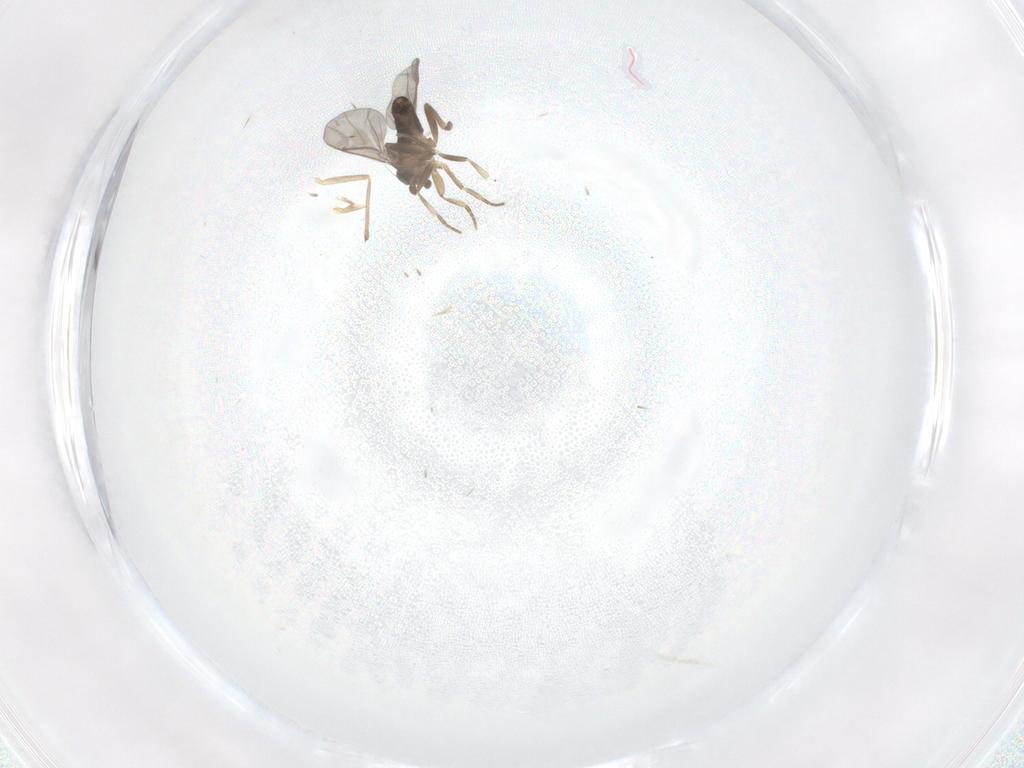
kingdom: Animalia
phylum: Arthropoda
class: Insecta
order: Diptera
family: Chironomidae
